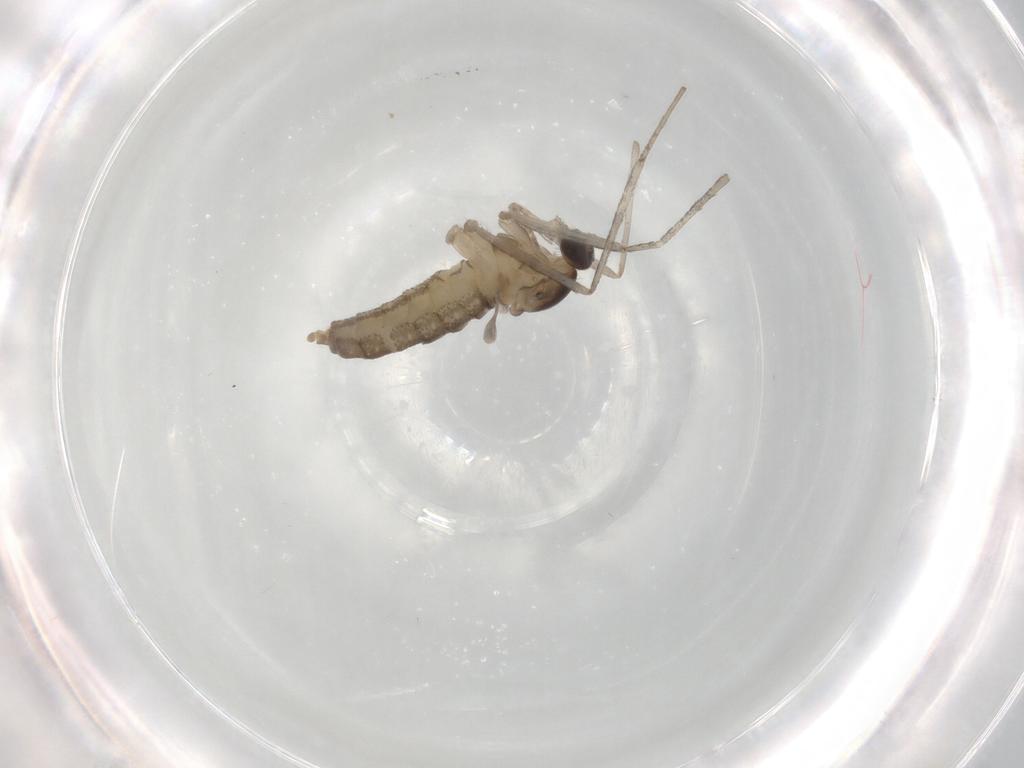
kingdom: Animalia
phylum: Arthropoda
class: Insecta
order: Diptera
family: Cecidomyiidae
